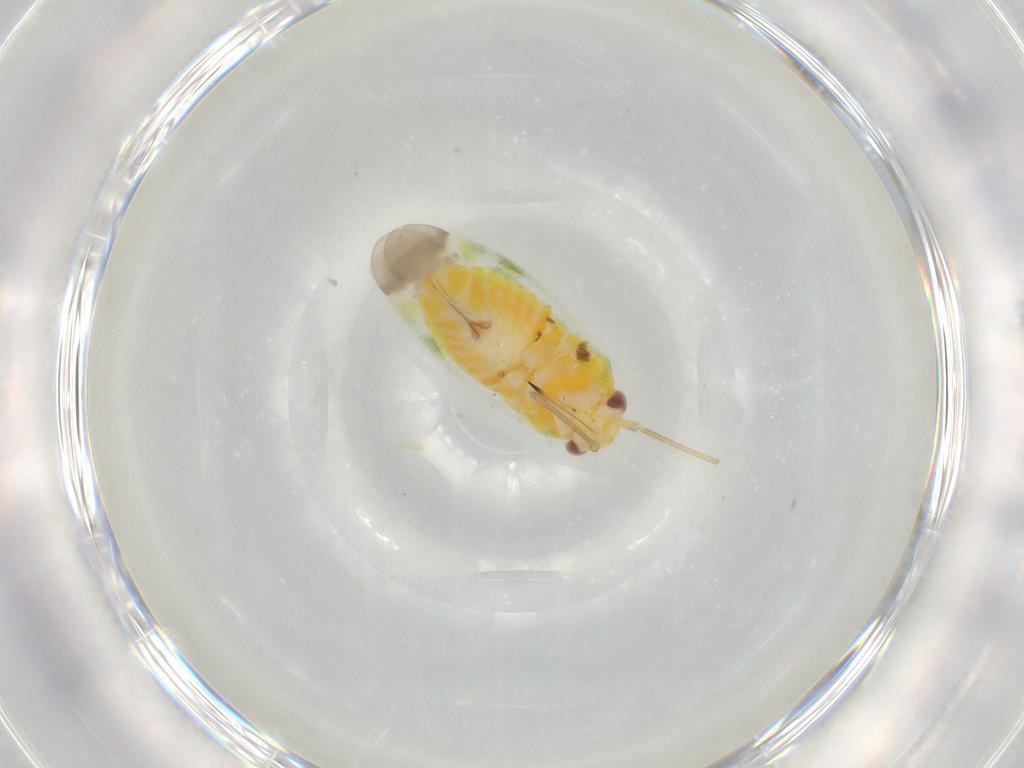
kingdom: Animalia
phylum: Arthropoda
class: Insecta
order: Hemiptera
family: Miridae
